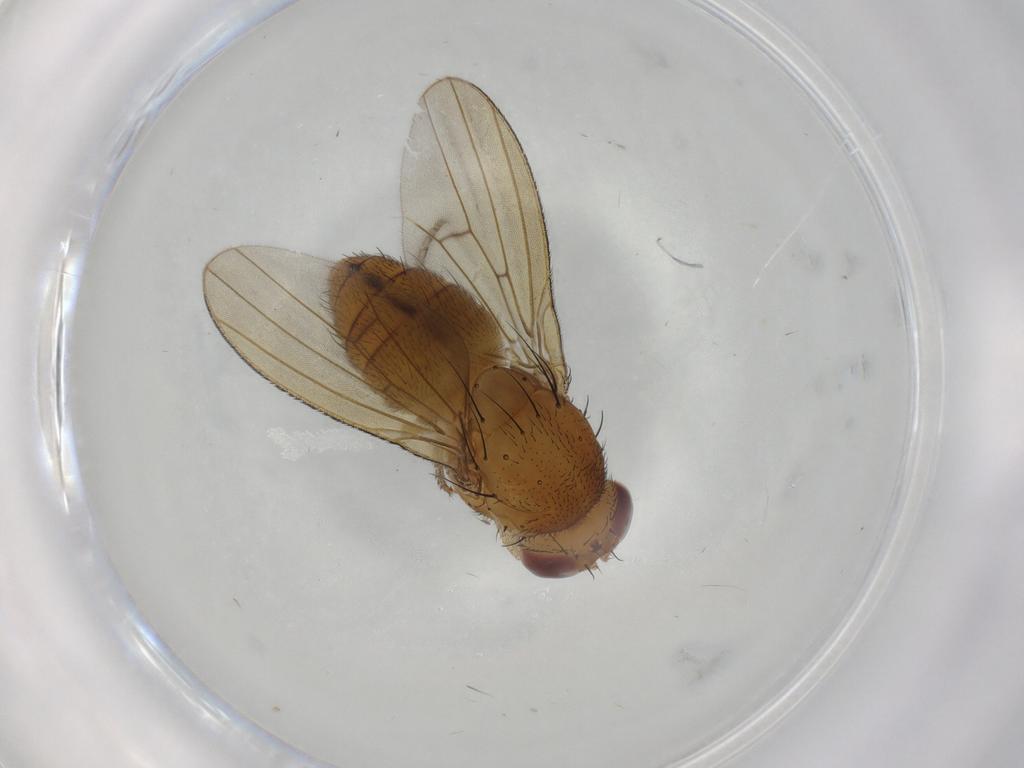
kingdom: Animalia
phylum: Arthropoda
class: Insecta
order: Diptera
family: Lauxaniidae
